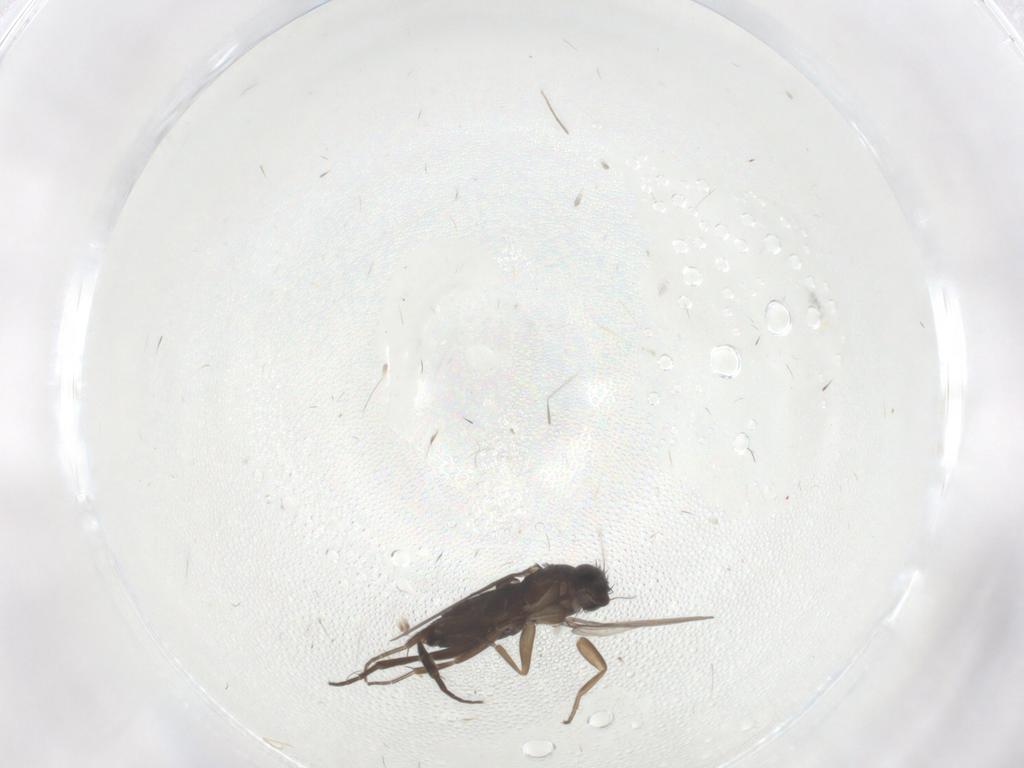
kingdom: Animalia
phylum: Arthropoda
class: Insecta
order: Diptera
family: Phoridae
